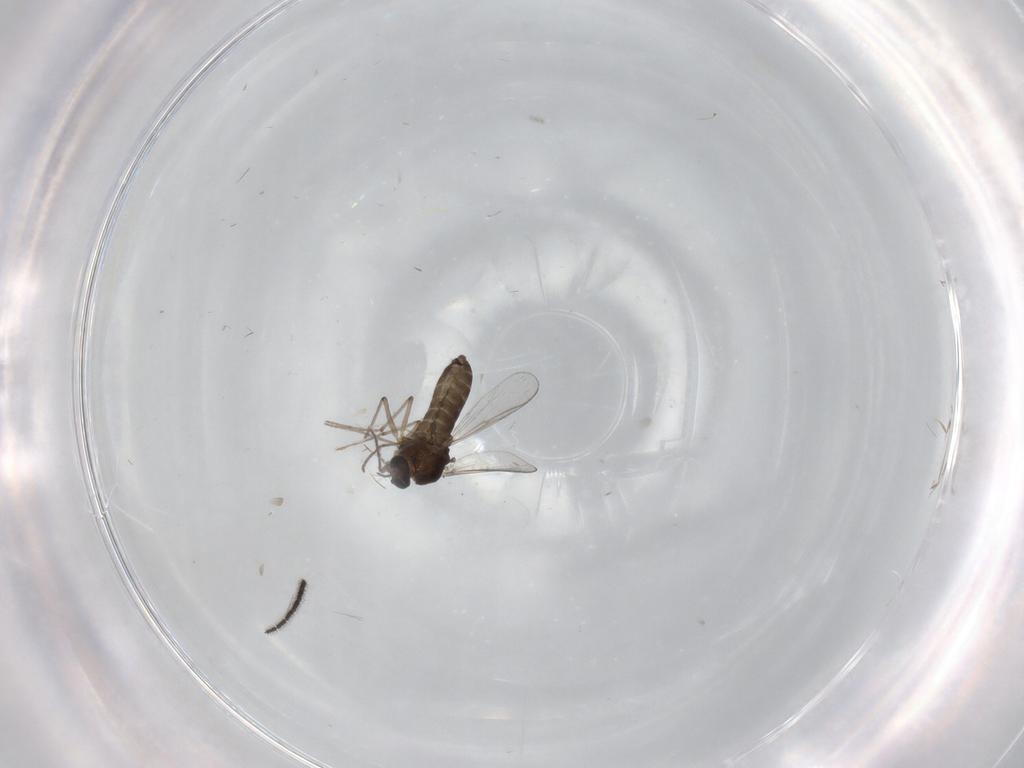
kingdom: Animalia
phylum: Arthropoda
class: Insecta
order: Diptera
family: Chironomidae
